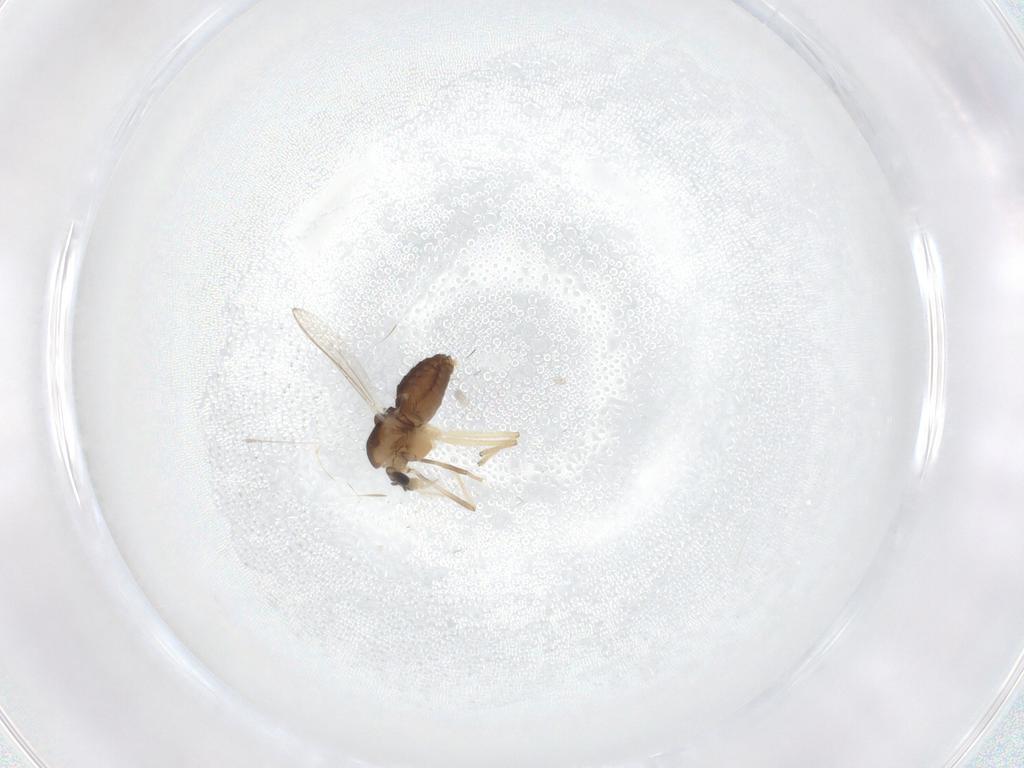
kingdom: Animalia
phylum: Arthropoda
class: Insecta
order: Diptera
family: Chironomidae
